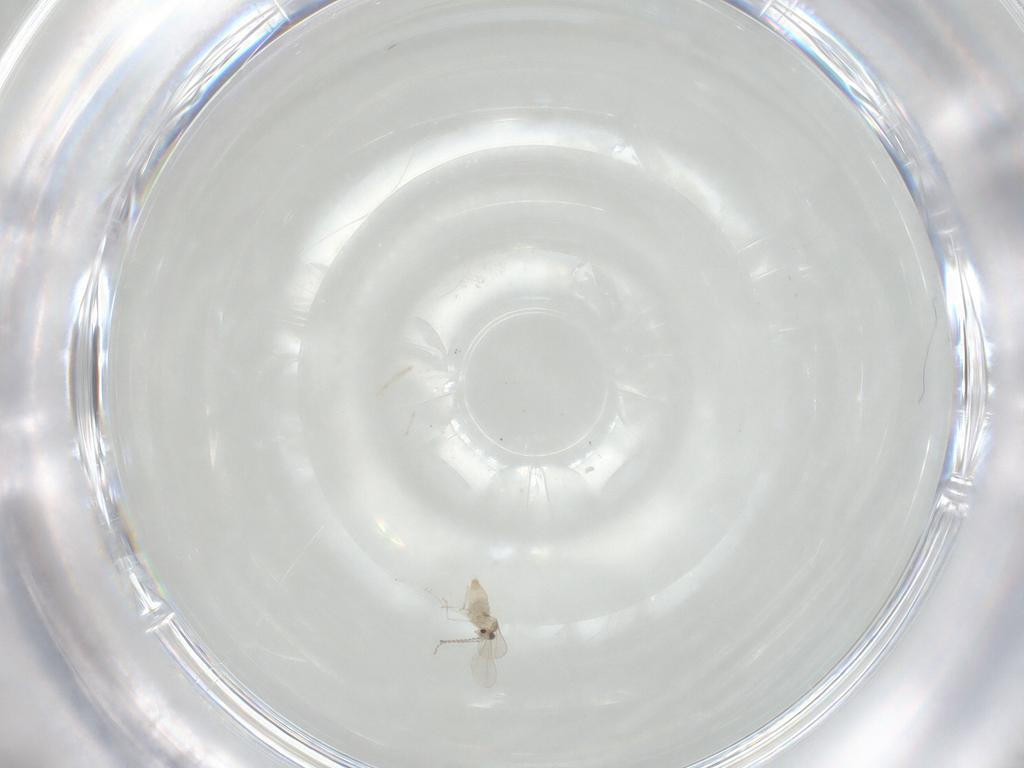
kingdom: Animalia
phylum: Arthropoda
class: Insecta
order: Diptera
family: Cecidomyiidae
